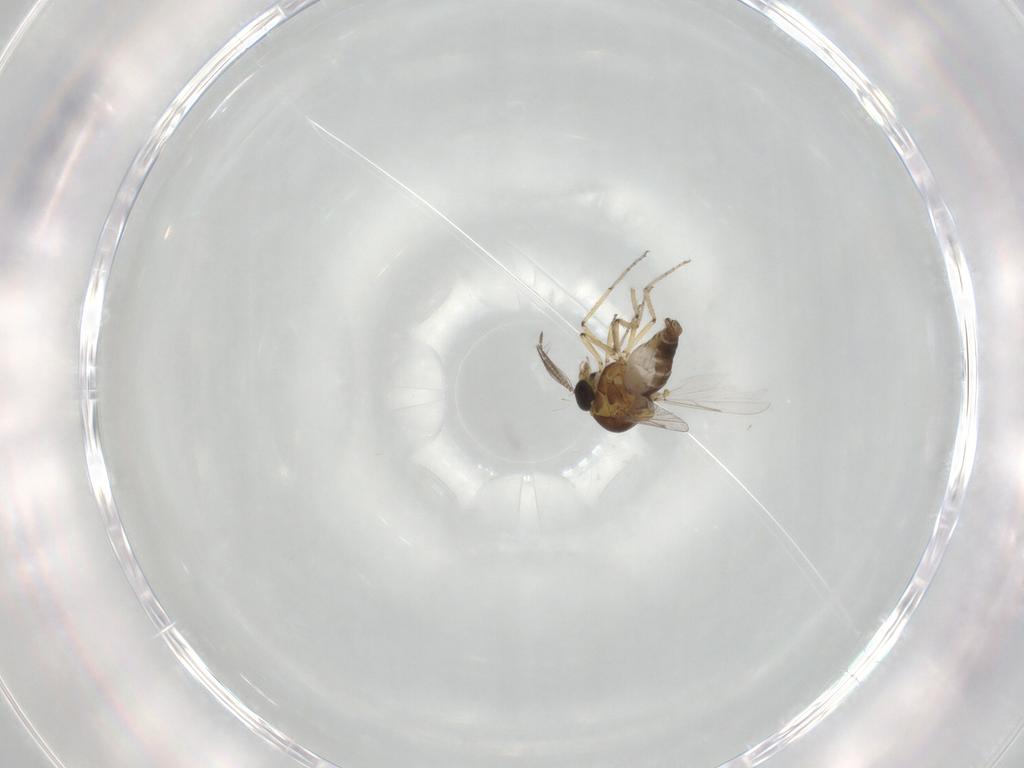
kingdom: Animalia
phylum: Arthropoda
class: Insecta
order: Diptera
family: Ceratopogonidae
